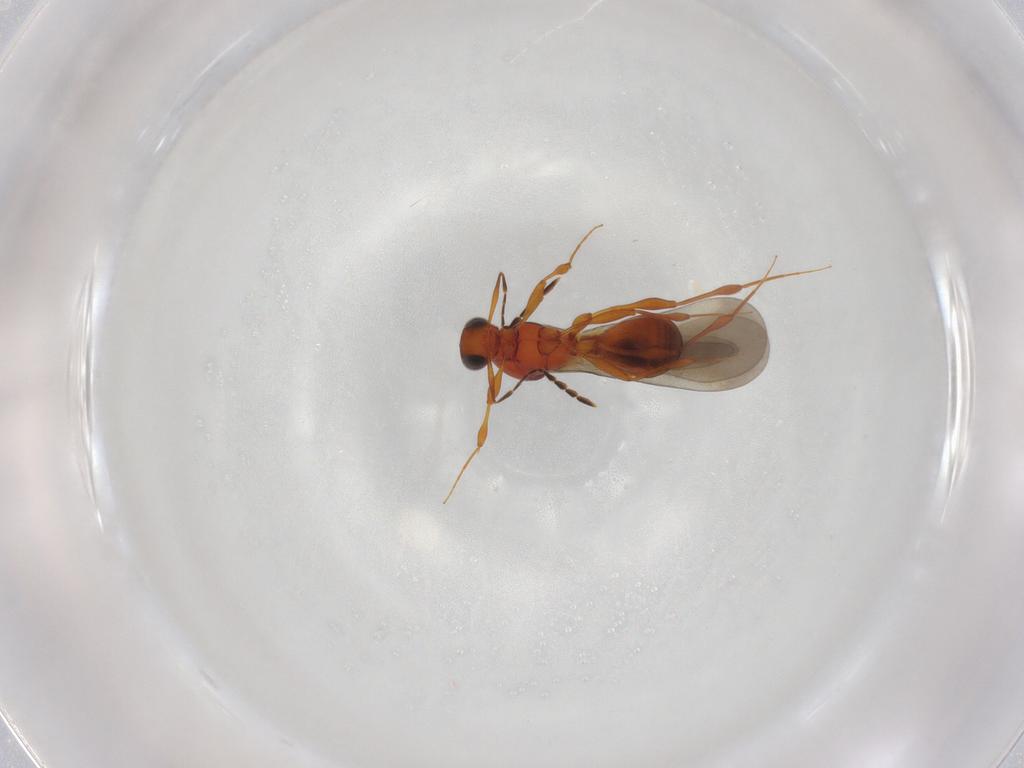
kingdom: Animalia
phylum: Arthropoda
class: Insecta
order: Hymenoptera
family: Platygastridae
